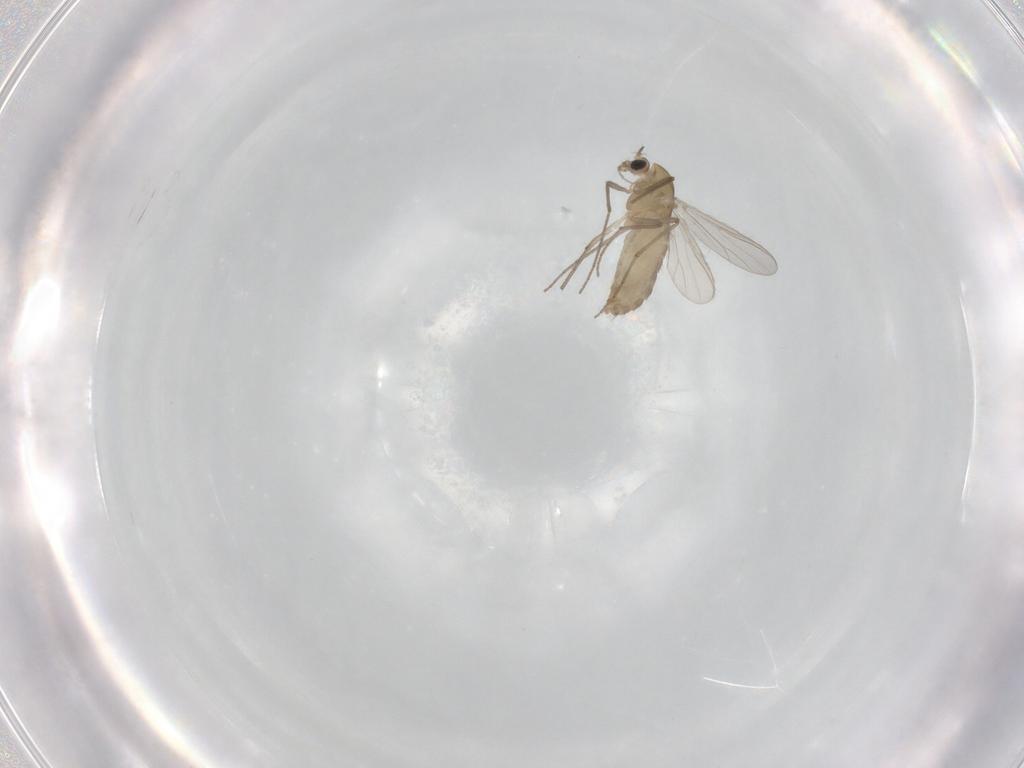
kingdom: Animalia
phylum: Arthropoda
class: Insecta
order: Diptera
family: Chironomidae
